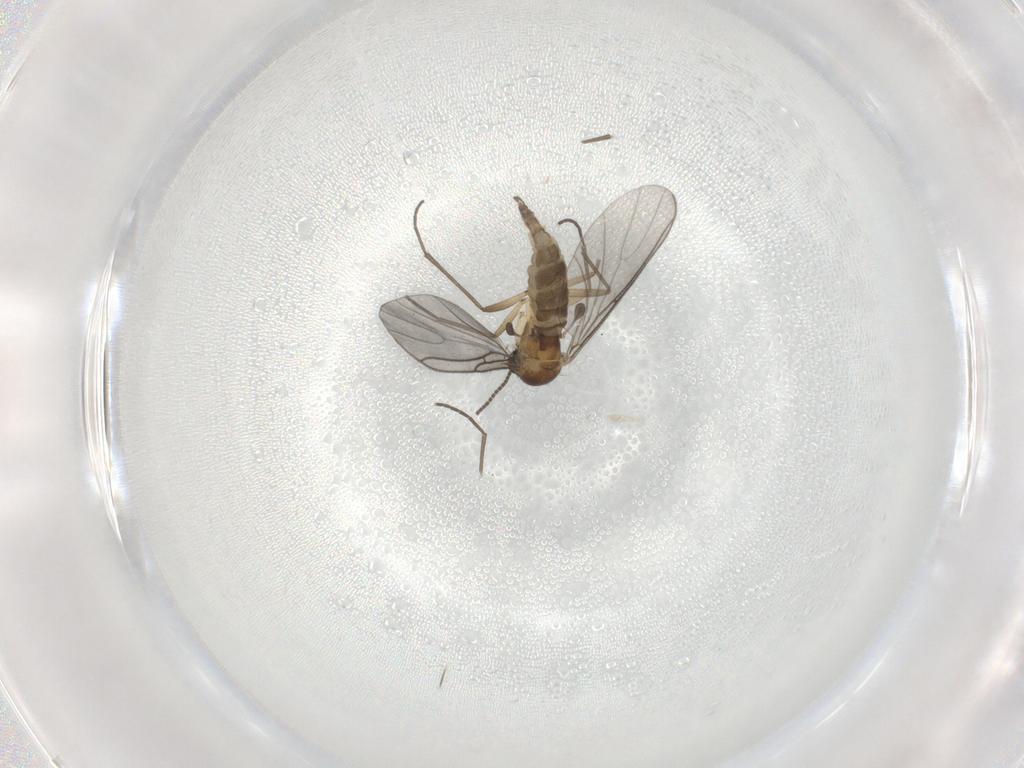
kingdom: Animalia
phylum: Arthropoda
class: Insecta
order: Diptera
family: Sciaridae
